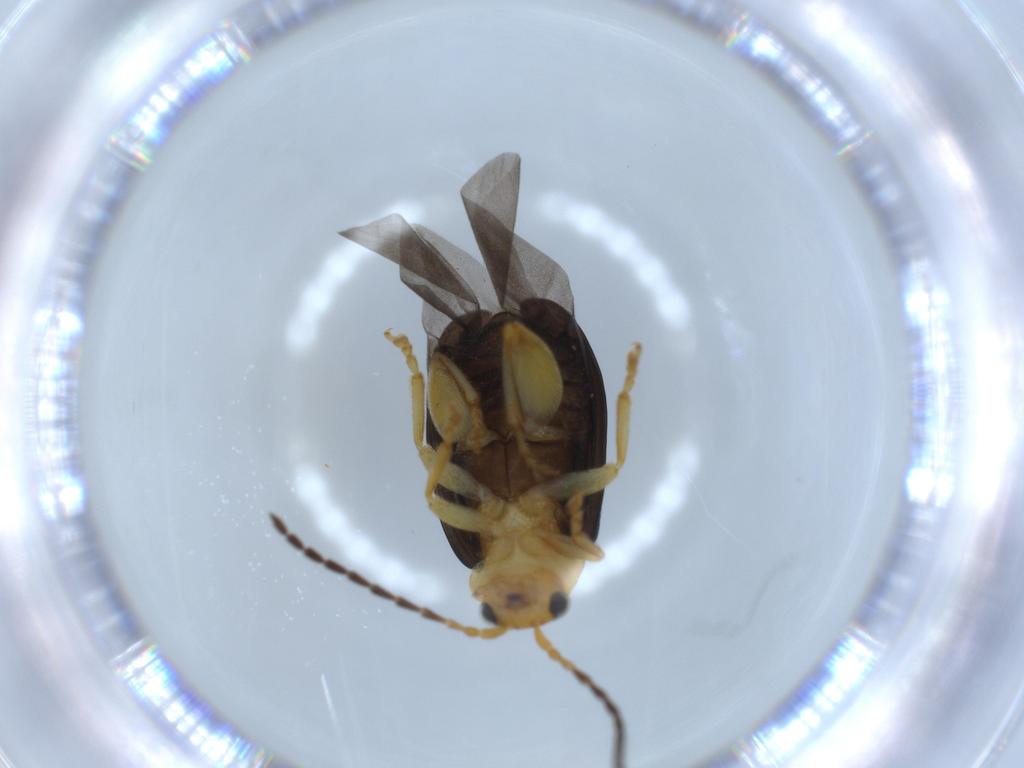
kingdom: Animalia
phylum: Arthropoda
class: Insecta
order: Coleoptera
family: Chrysomelidae
